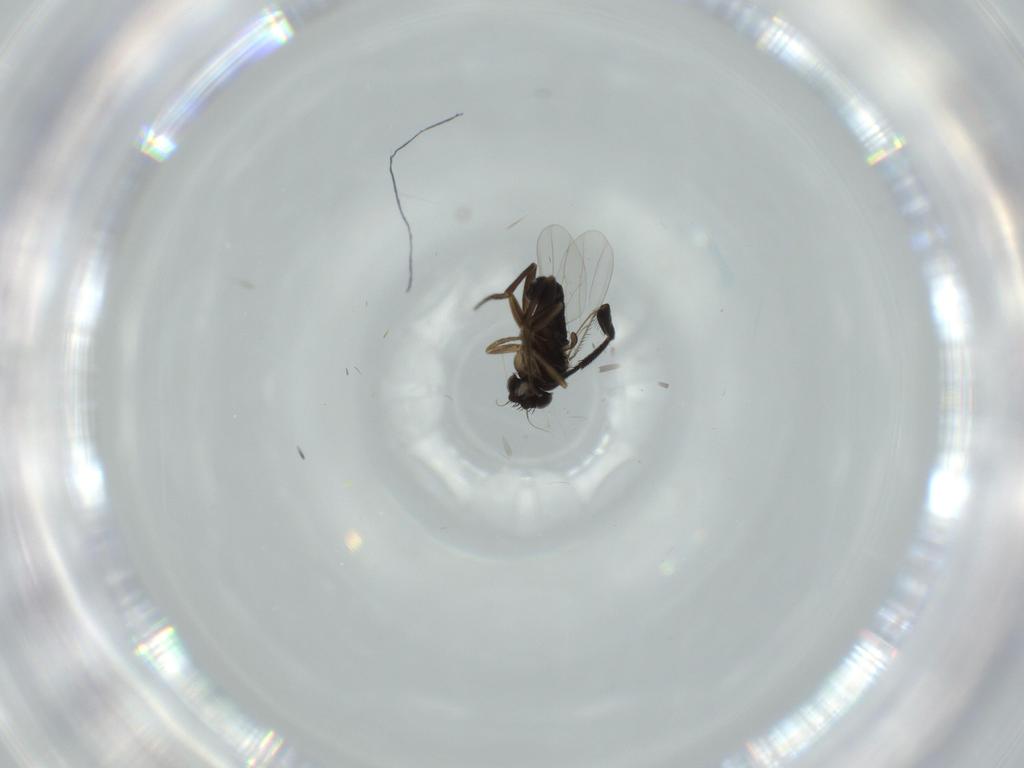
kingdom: Animalia
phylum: Arthropoda
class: Insecta
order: Diptera
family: Phoridae
